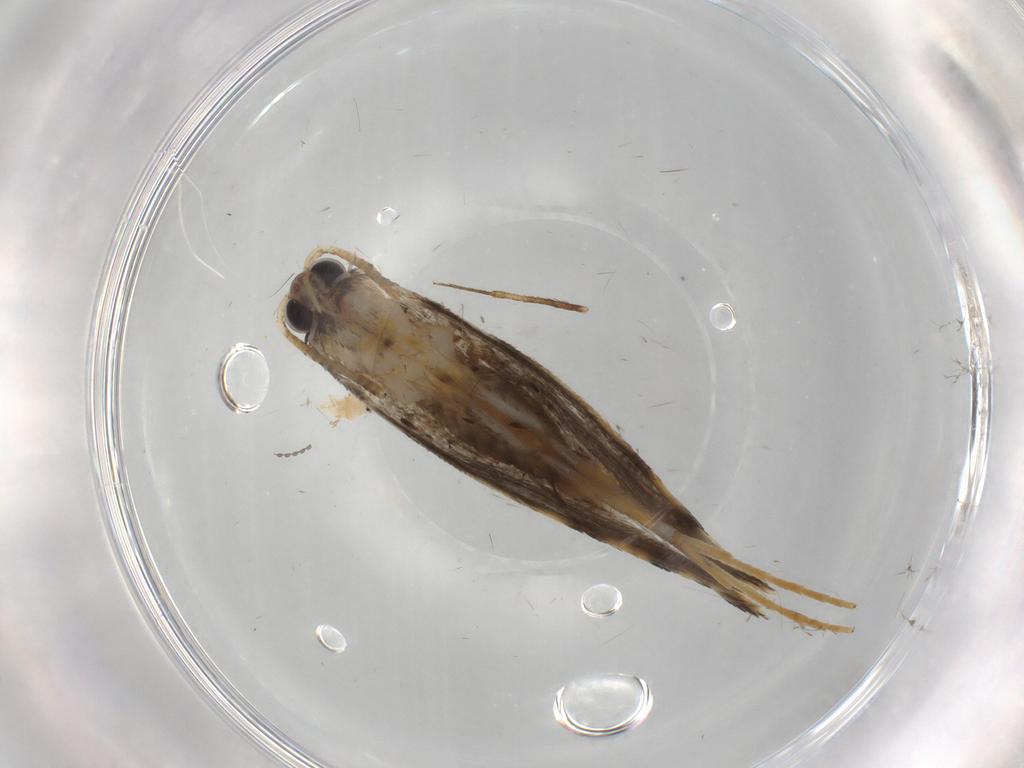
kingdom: Animalia
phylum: Arthropoda
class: Insecta
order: Lepidoptera
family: Tineidae
